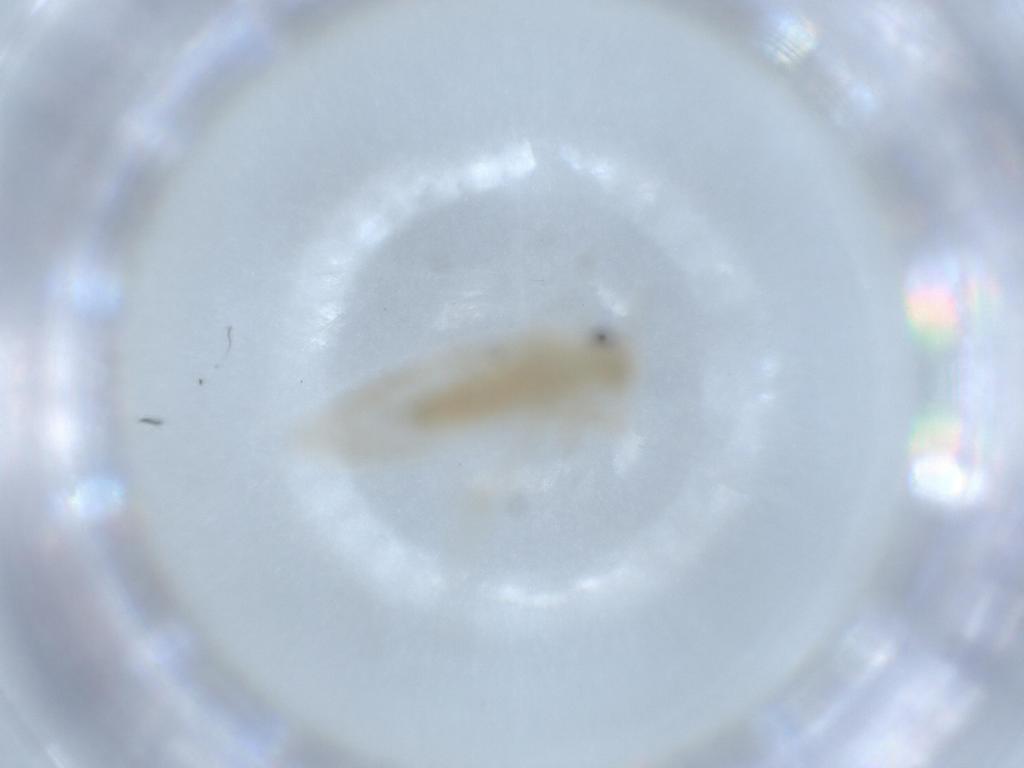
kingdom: Animalia
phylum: Arthropoda
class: Insecta
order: Psocodea
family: Caeciliusidae
